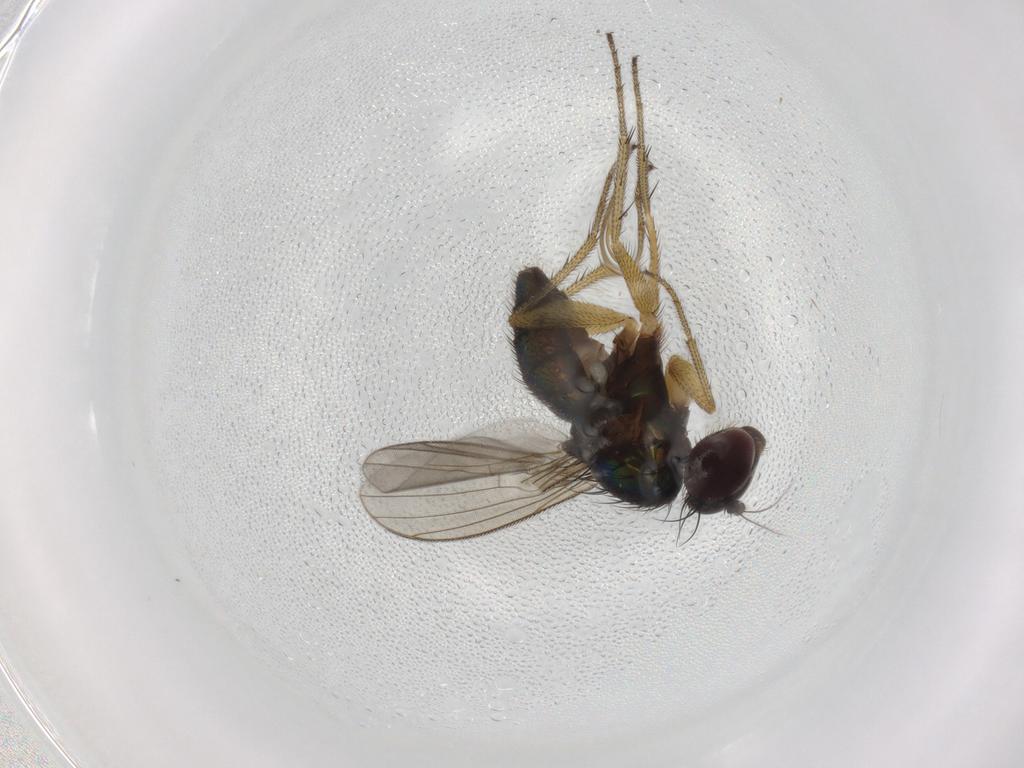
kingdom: Animalia
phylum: Arthropoda
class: Insecta
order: Diptera
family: Dolichopodidae
